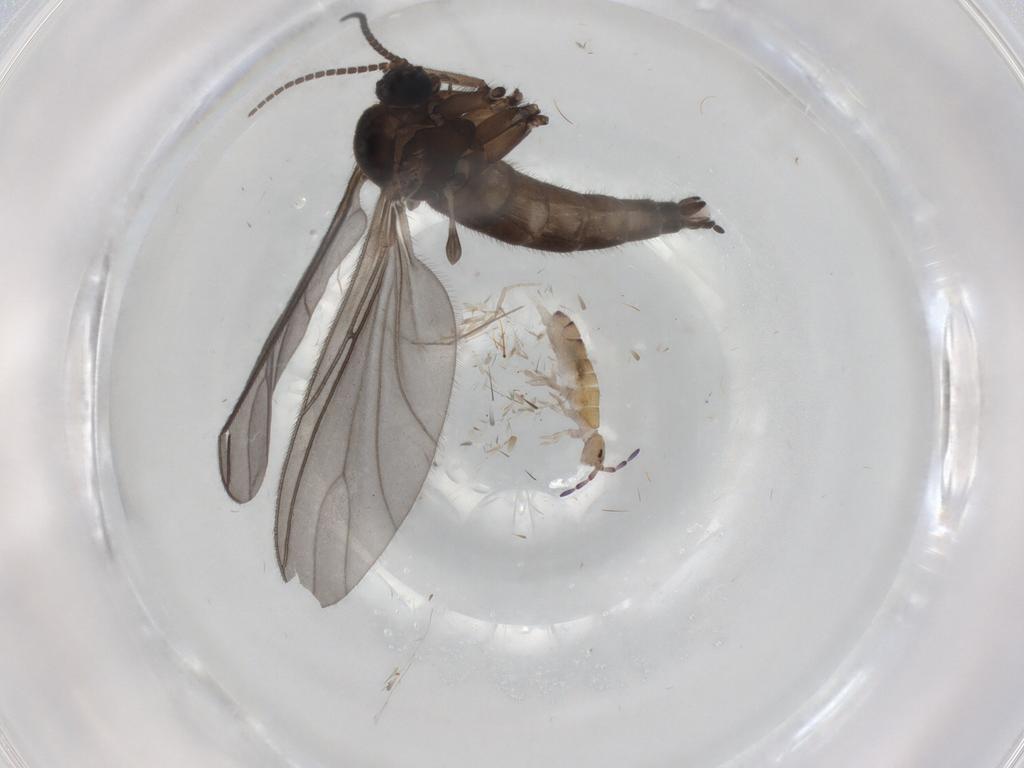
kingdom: Animalia
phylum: Arthropoda
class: Insecta
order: Diptera
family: Sciaridae
